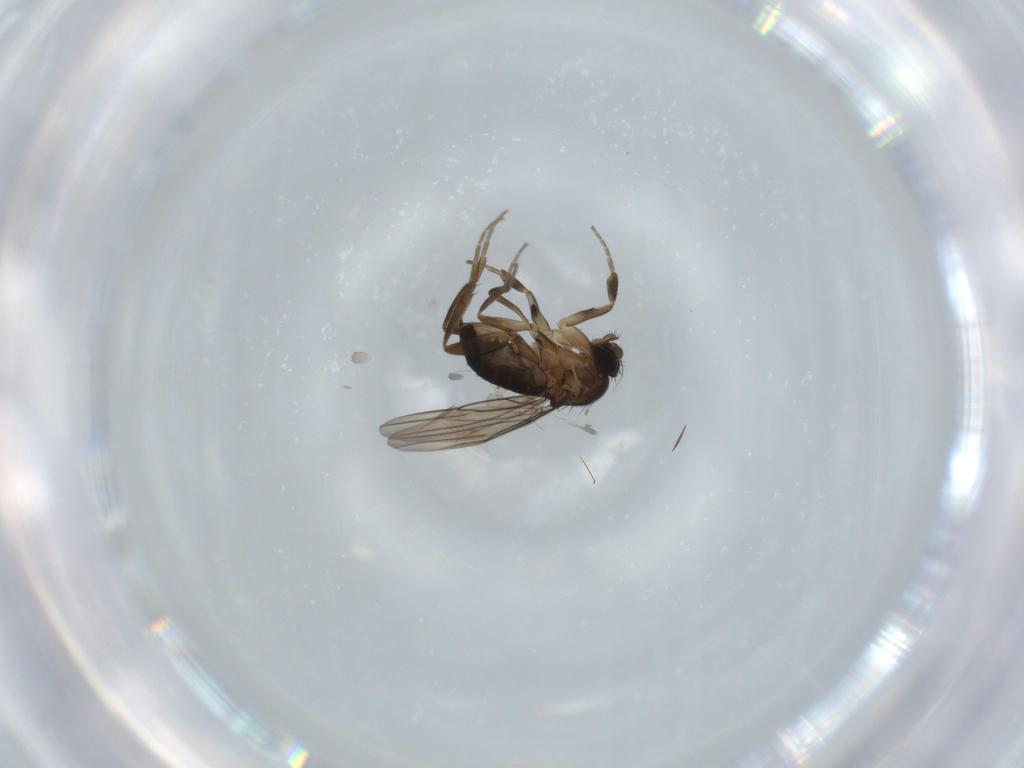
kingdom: Animalia
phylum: Arthropoda
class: Insecta
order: Diptera
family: Phoridae
